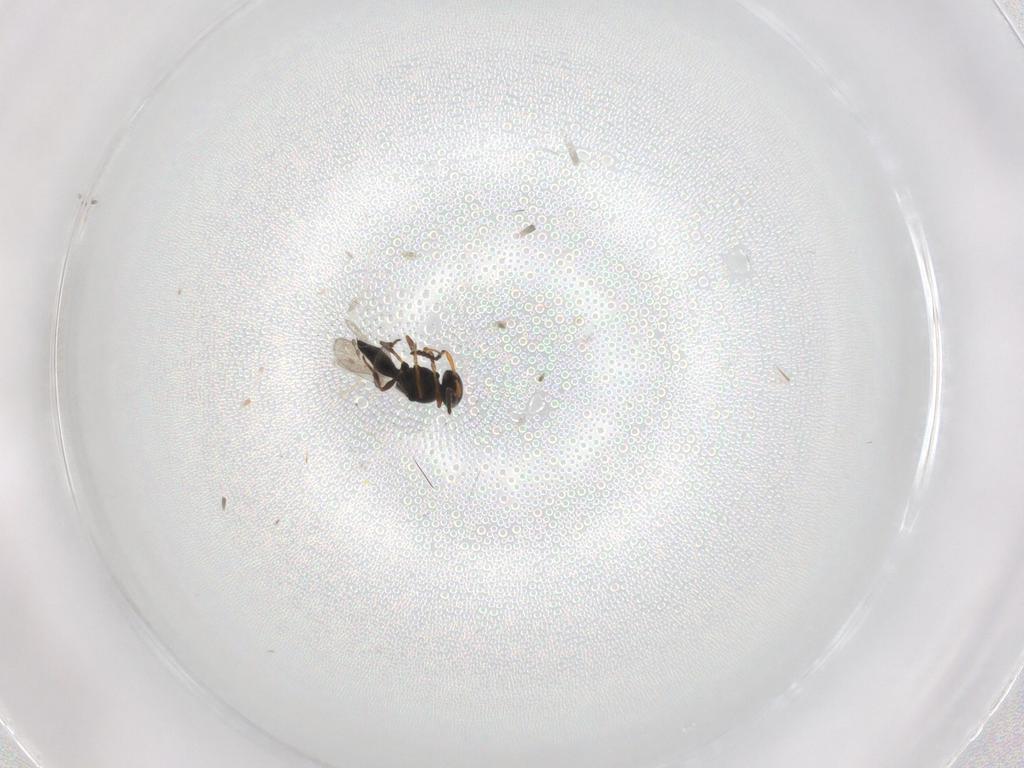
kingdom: Animalia
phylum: Arthropoda
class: Insecta
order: Hymenoptera
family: Platygastridae
